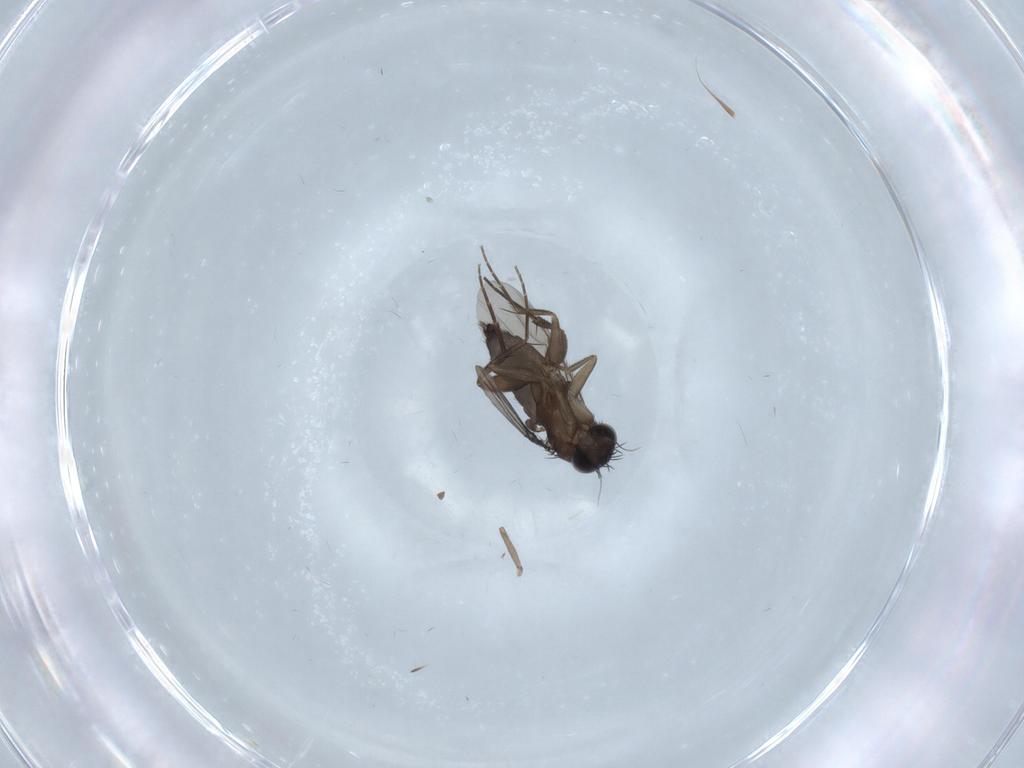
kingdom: Animalia
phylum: Arthropoda
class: Insecta
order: Diptera
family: Phoridae
